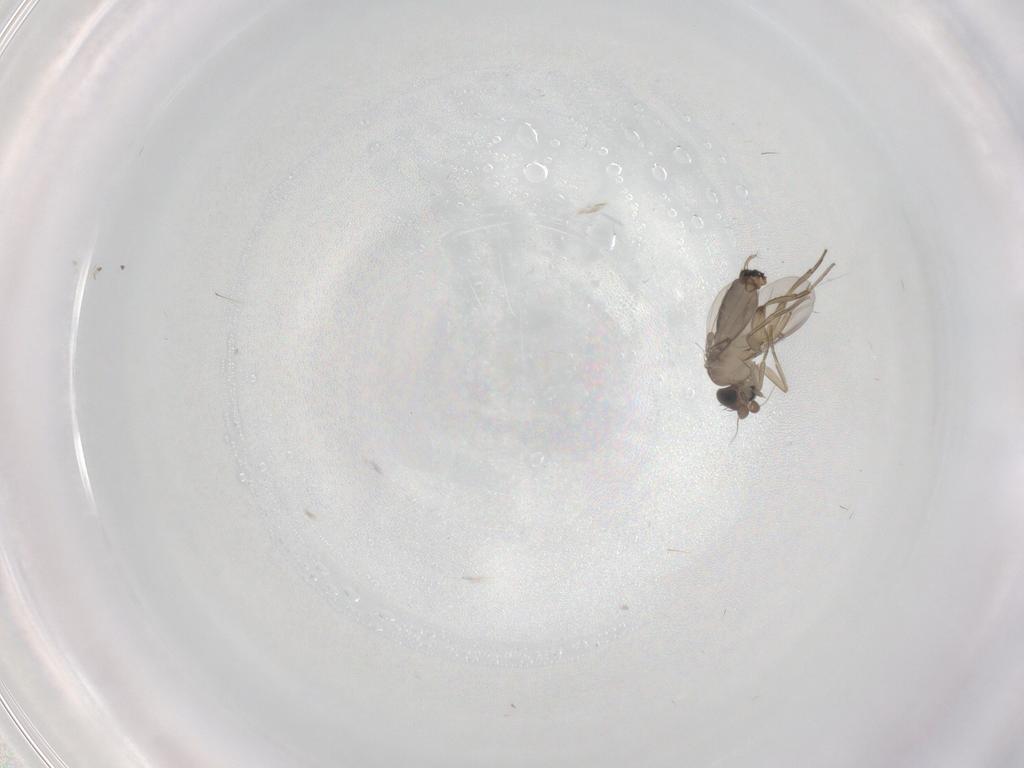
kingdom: Animalia
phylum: Arthropoda
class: Insecta
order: Diptera
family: Phoridae
